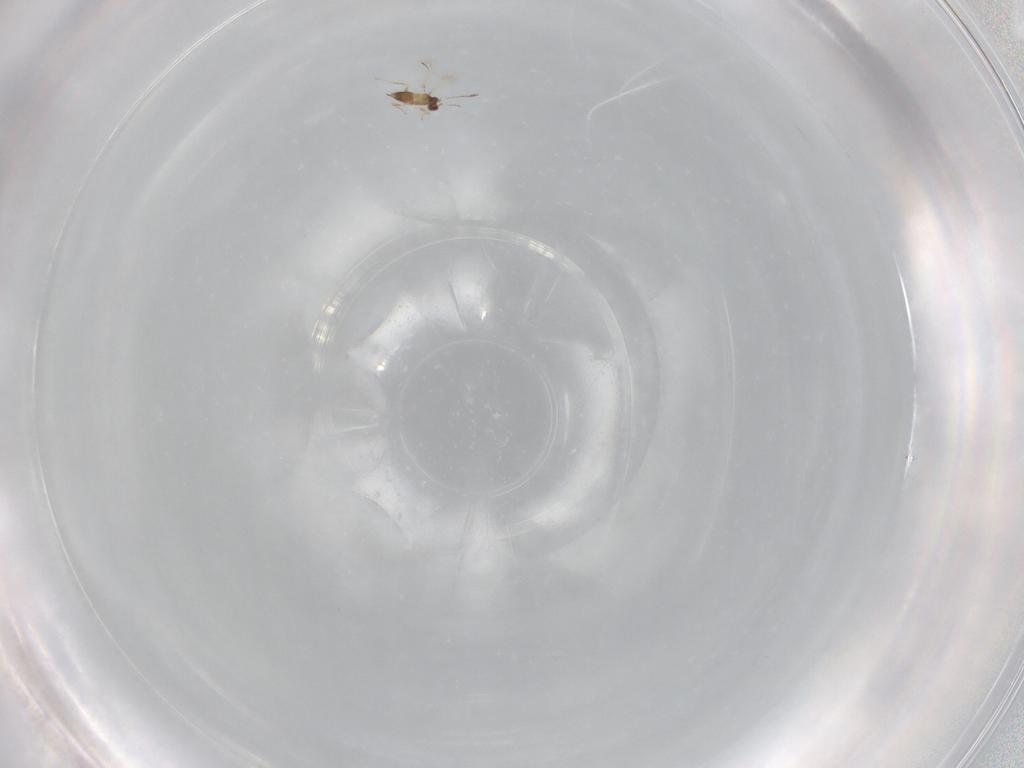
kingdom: Animalia
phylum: Arthropoda
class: Insecta
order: Hymenoptera
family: Mymaridae
